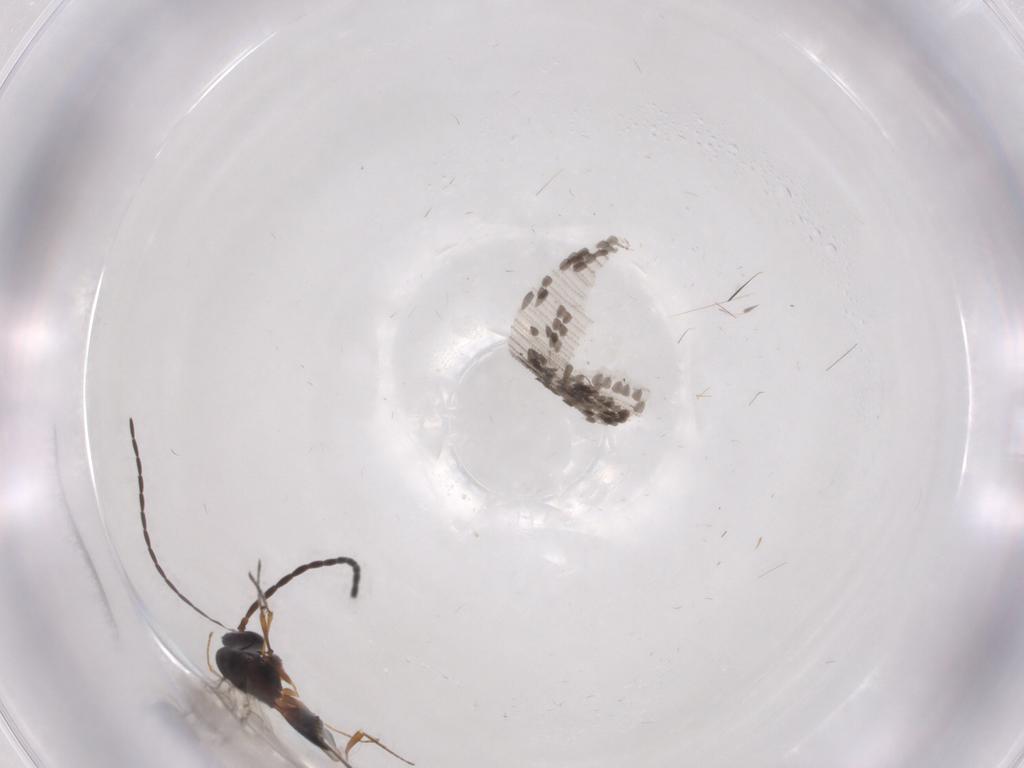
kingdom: Animalia
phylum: Arthropoda
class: Insecta
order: Hymenoptera
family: Figitidae
